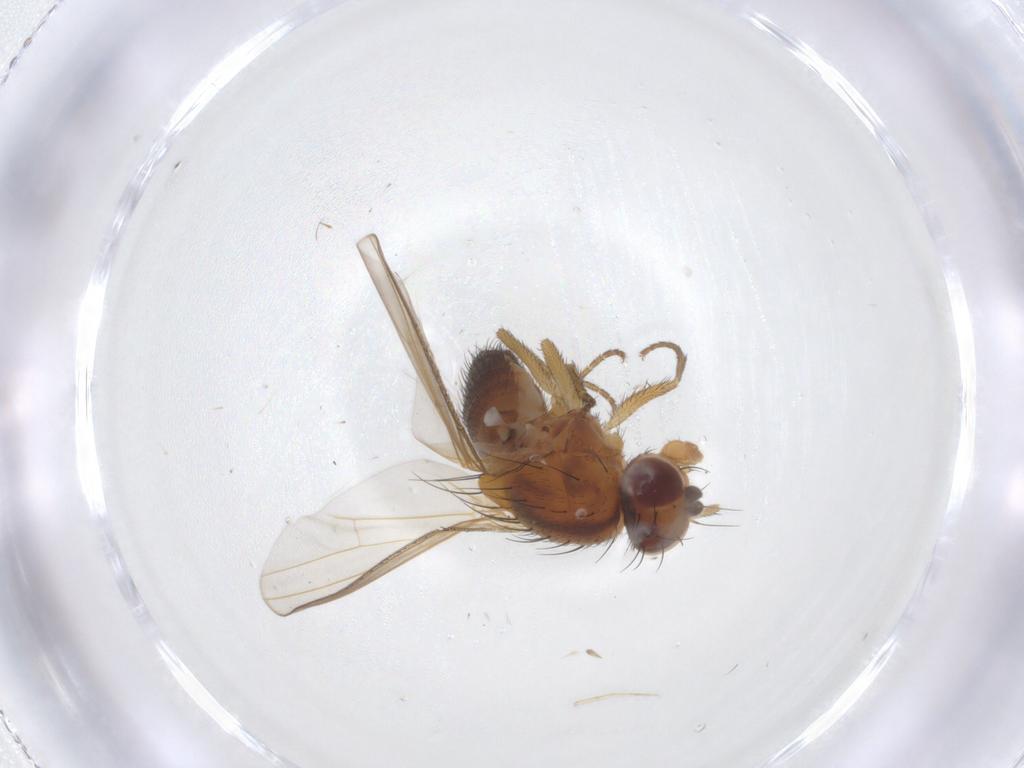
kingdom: Animalia
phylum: Arthropoda
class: Insecta
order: Diptera
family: Heleomyzidae
